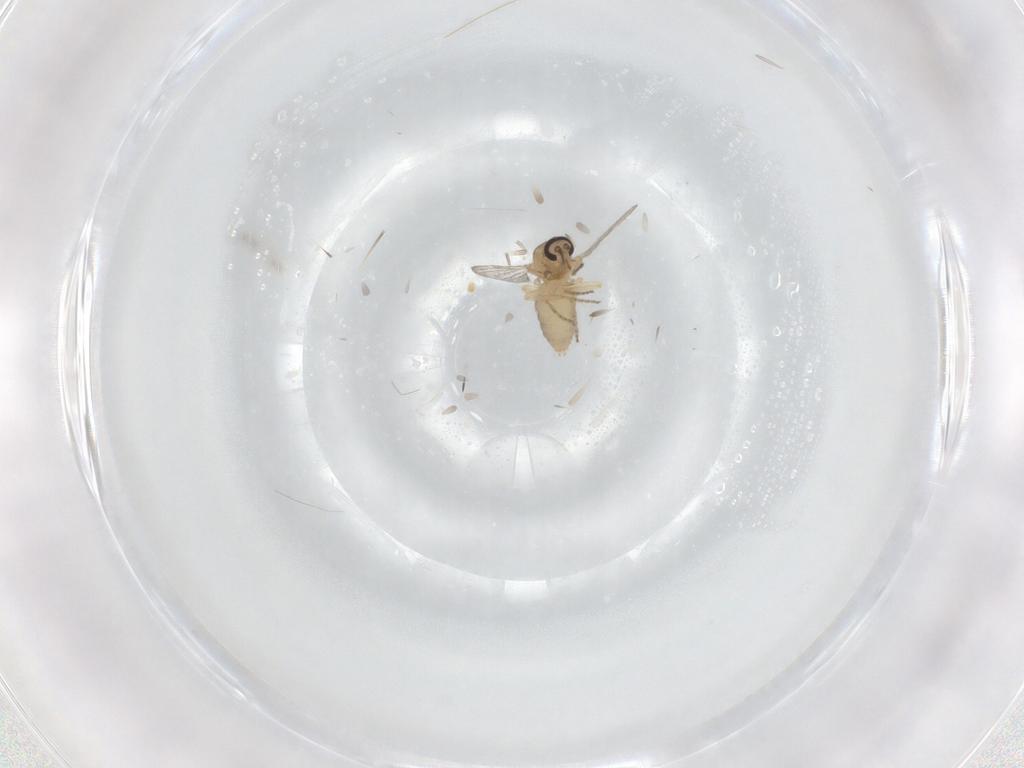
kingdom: Animalia
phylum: Arthropoda
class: Insecta
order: Diptera
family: Ceratopogonidae
